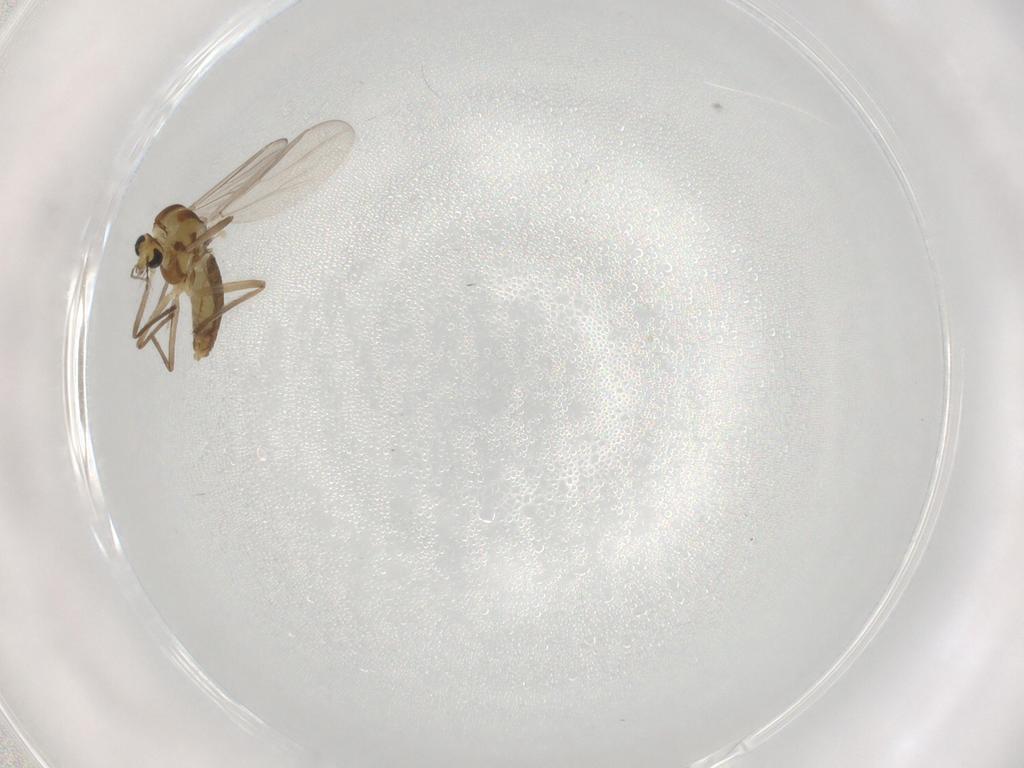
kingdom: Animalia
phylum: Arthropoda
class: Insecta
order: Diptera
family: Chironomidae
